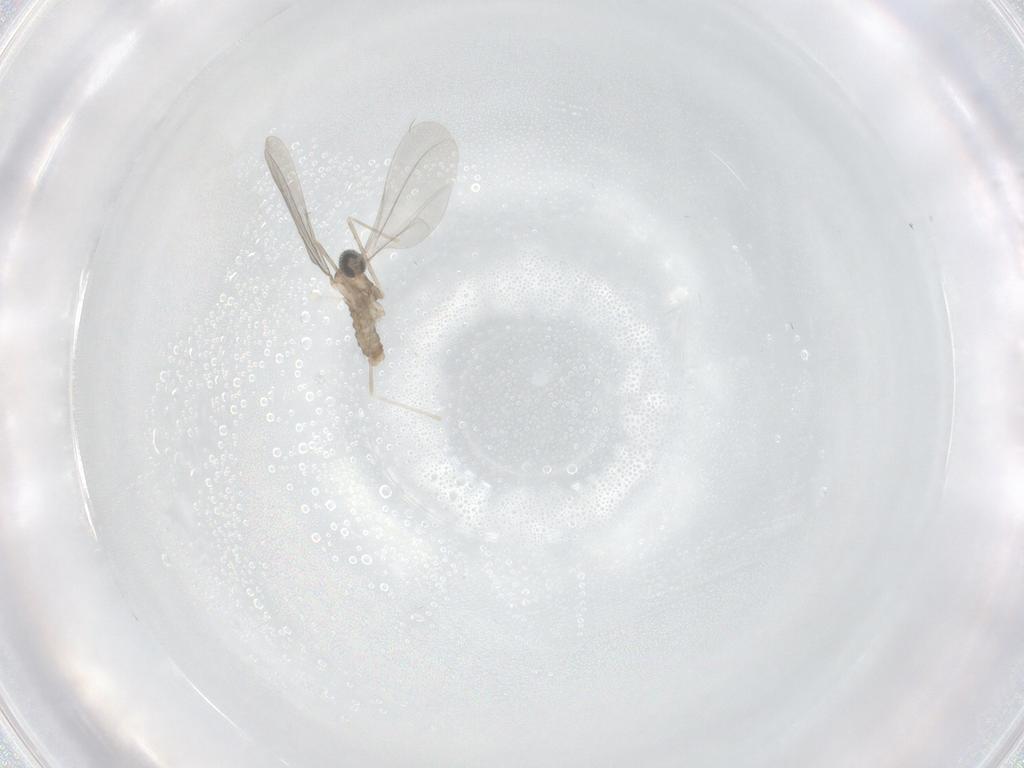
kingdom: Animalia
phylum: Arthropoda
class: Insecta
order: Diptera
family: Cecidomyiidae
